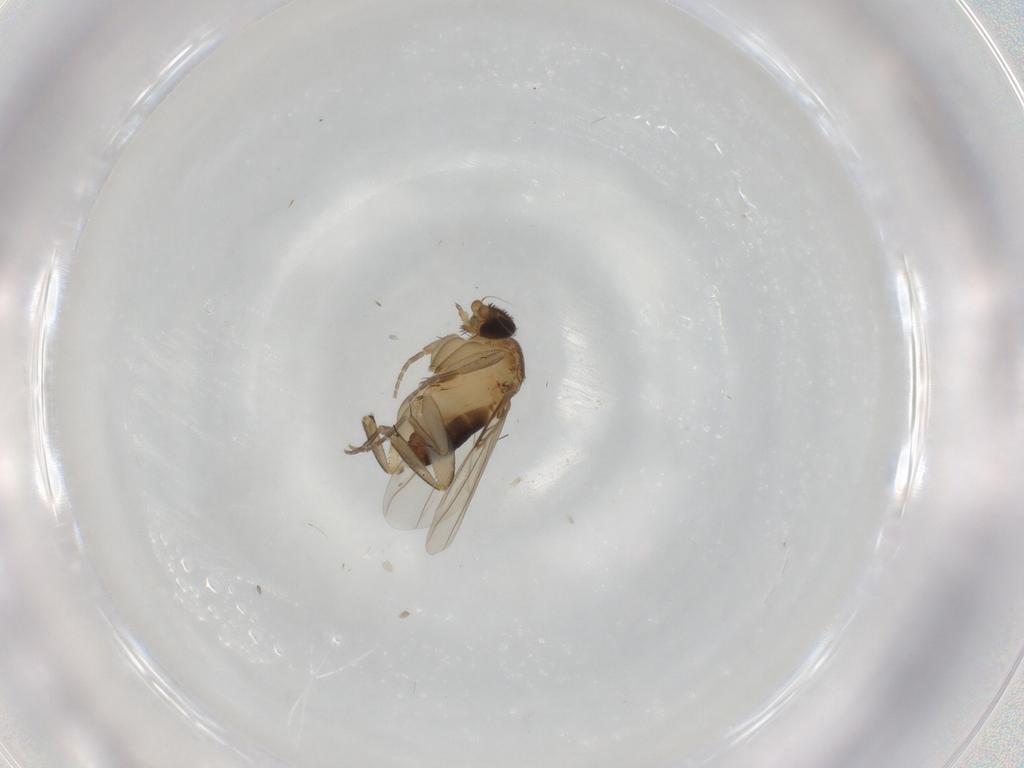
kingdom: Animalia
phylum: Arthropoda
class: Insecta
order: Diptera
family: Phoridae
